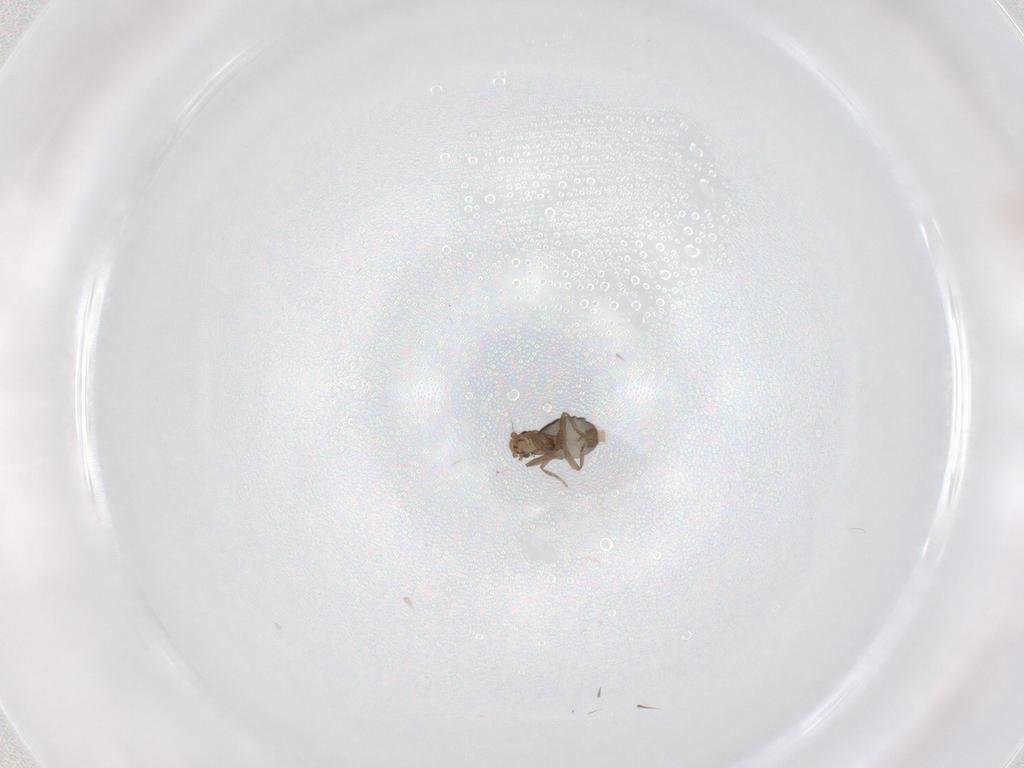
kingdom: Animalia
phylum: Arthropoda
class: Insecta
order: Diptera
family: Phoridae
